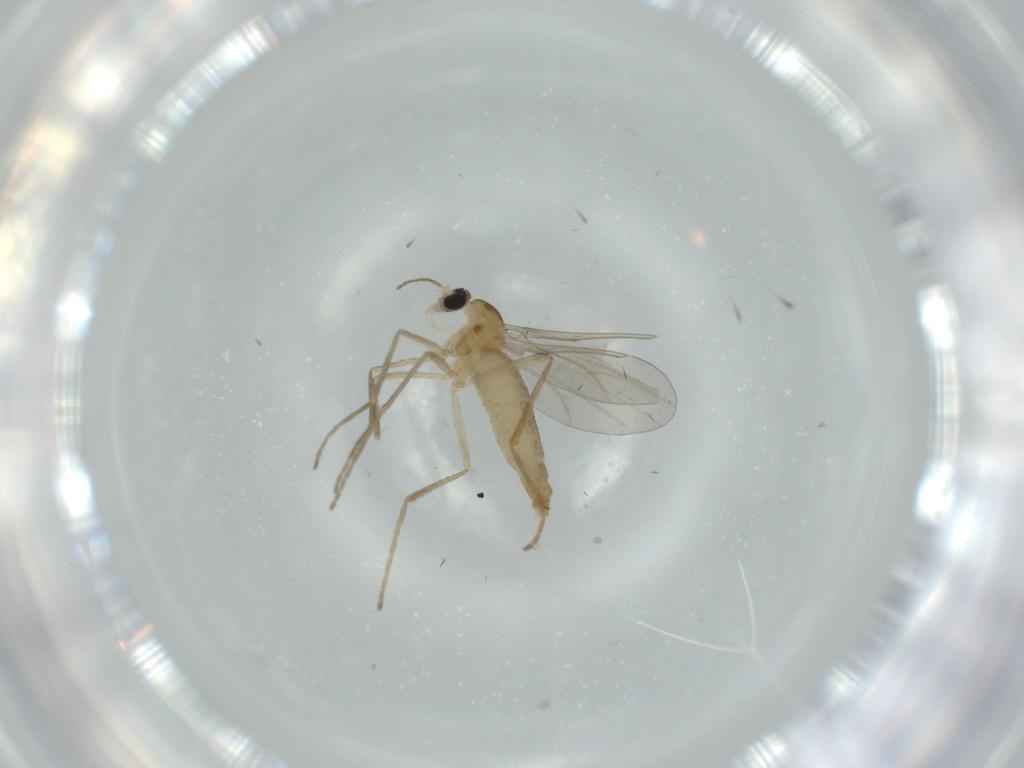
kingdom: Animalia
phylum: Arthropoda
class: Insecta
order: Diptera
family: Cecidomyiidae
